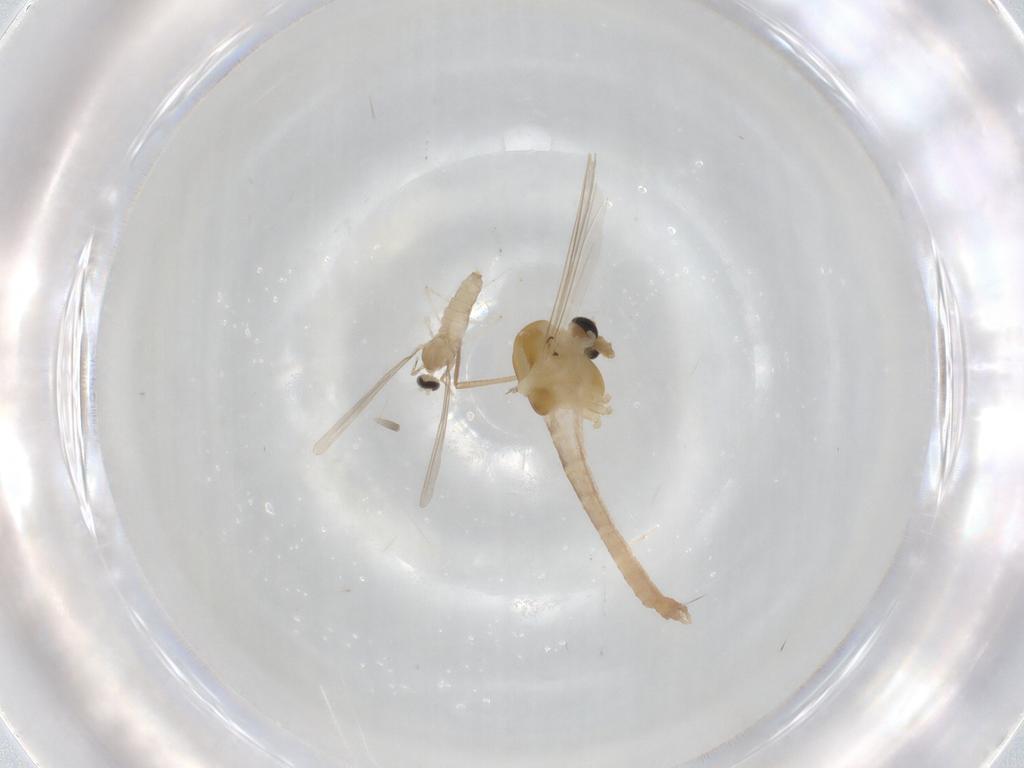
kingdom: Animalia
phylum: Arthropoda
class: Insecta
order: Diptera
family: Chironomidae
